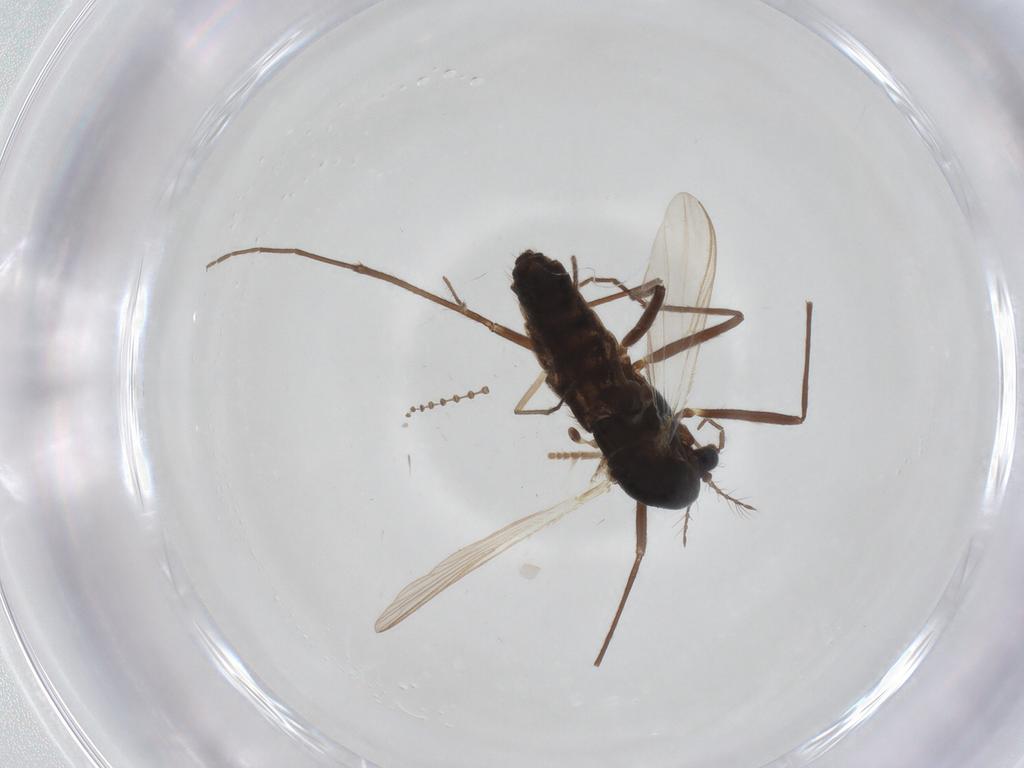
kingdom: Animalia
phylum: Arthropoda
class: Insecta
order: Diptera
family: Chironomidae
